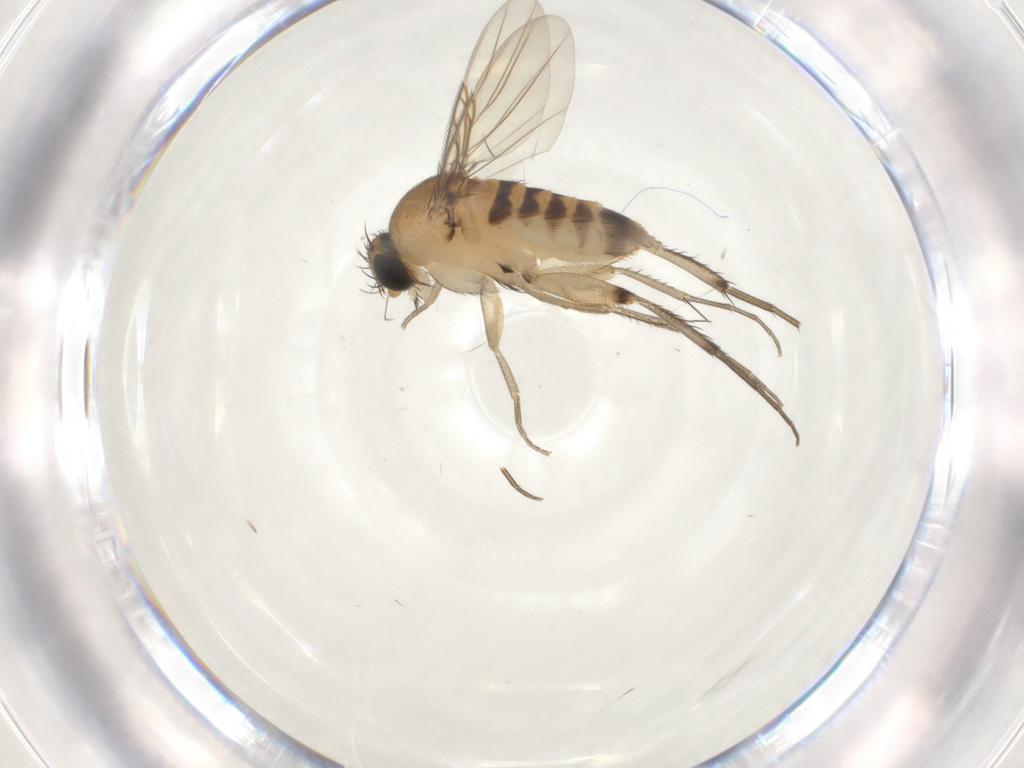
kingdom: Animalia
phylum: Arthropoda
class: Insecta
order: Diptera
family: Phoridae
